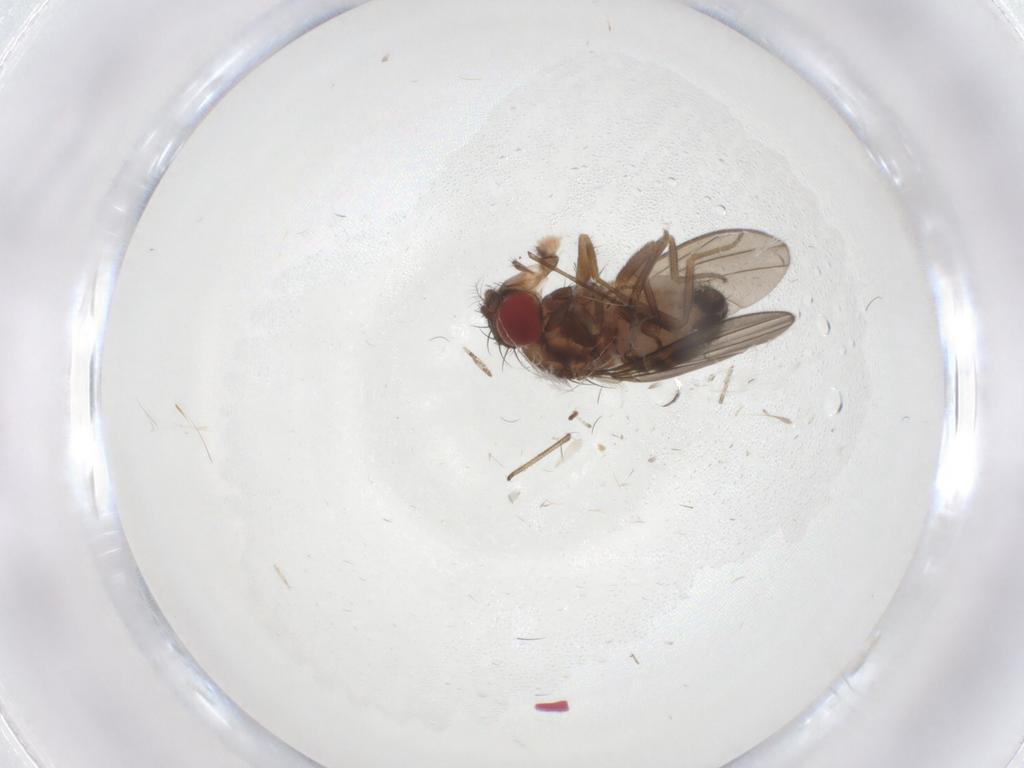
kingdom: Animalia
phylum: Arthropoda
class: Insecta
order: Diptera
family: Drosophilidae
